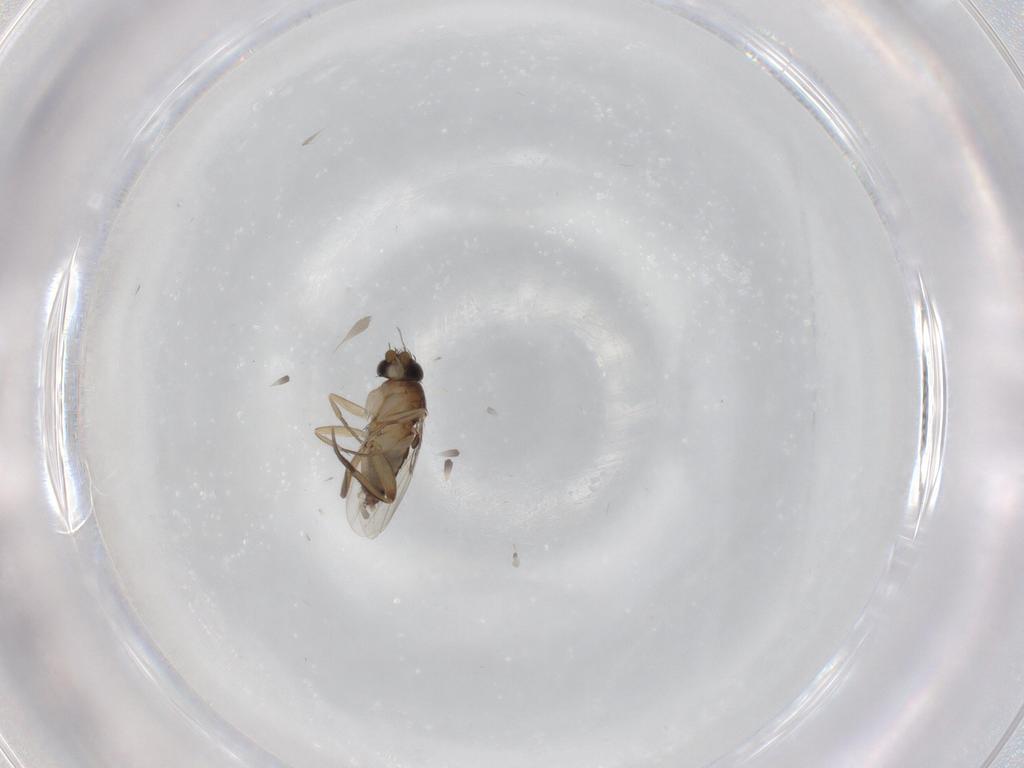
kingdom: Animalia
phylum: Arthropoda
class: Insecta
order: Diptera
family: Phoridae
